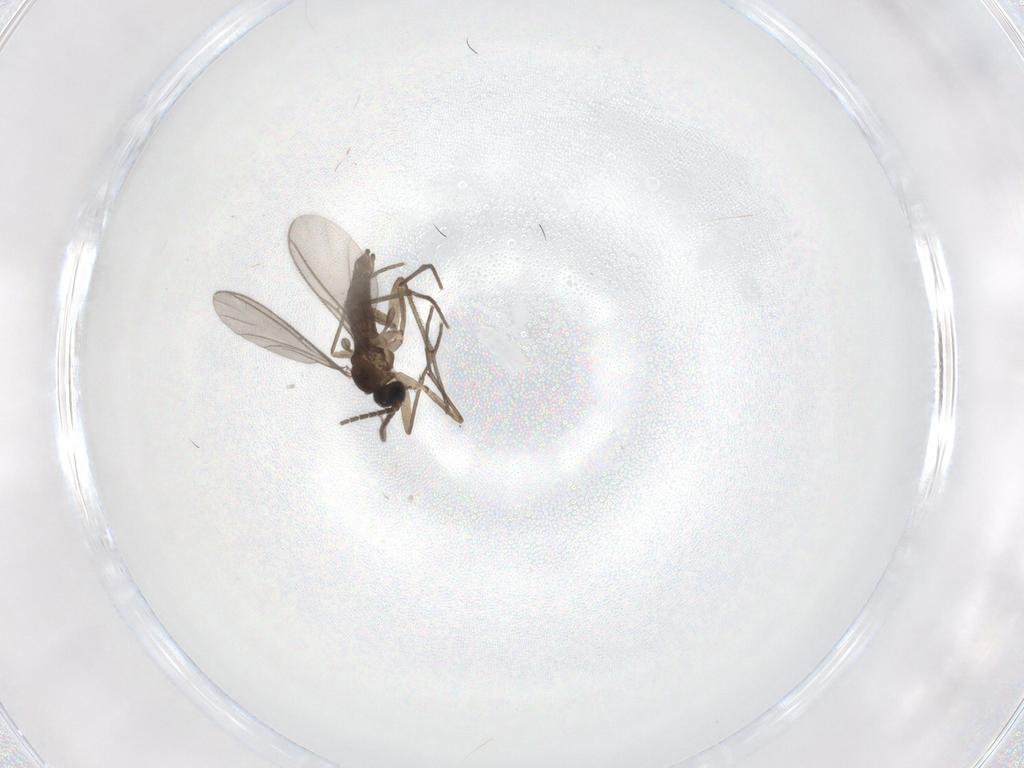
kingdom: Animalia
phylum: Arthropoda
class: Insecta
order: Diptera
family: Sciaridae
